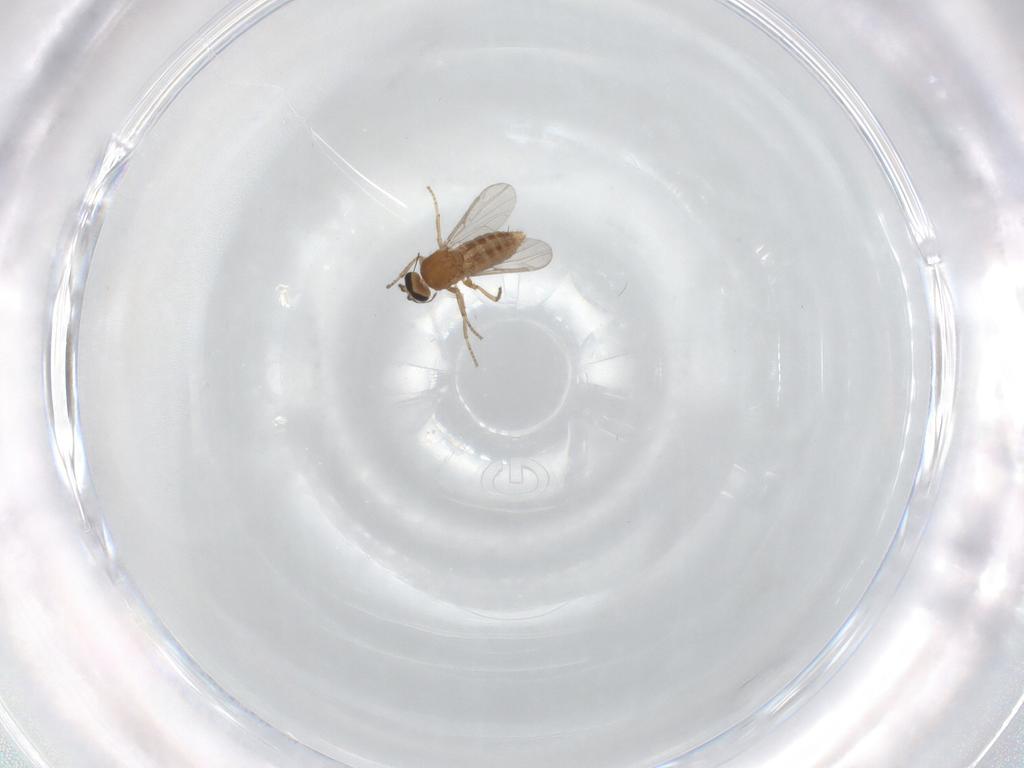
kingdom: Animalia
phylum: Arthropoda
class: Insecta
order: Diptera
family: Ceratopogonidae
